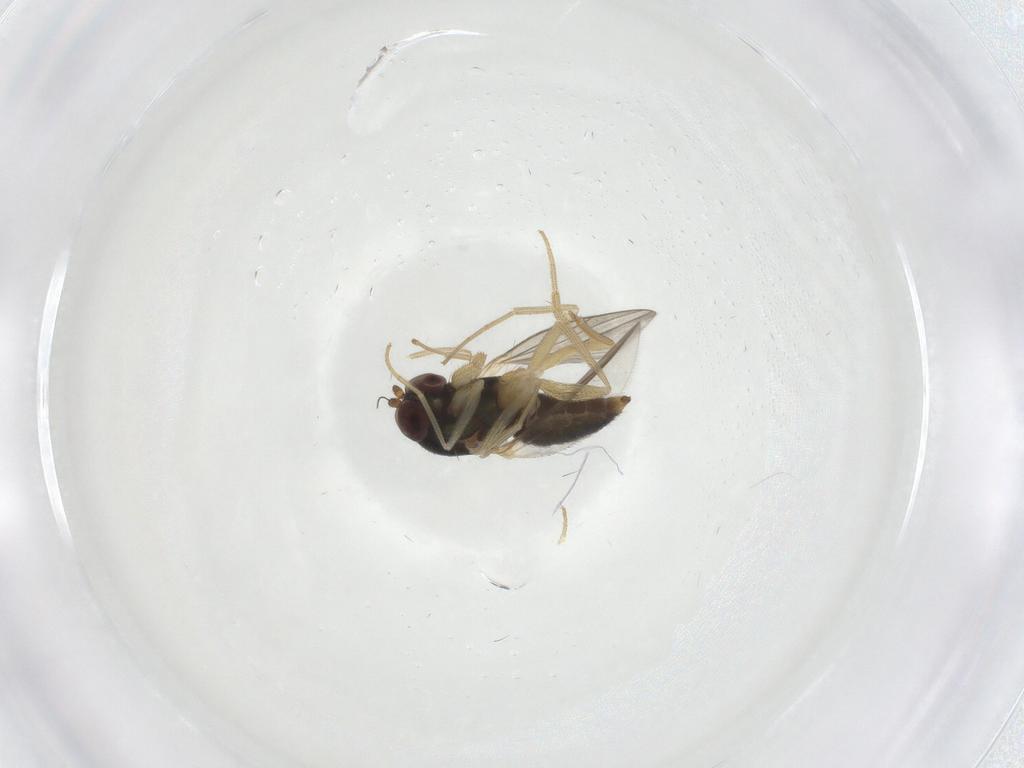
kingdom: Animalia
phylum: Arthropoda
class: Insecta
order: Diptera
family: Dolichopodidae
